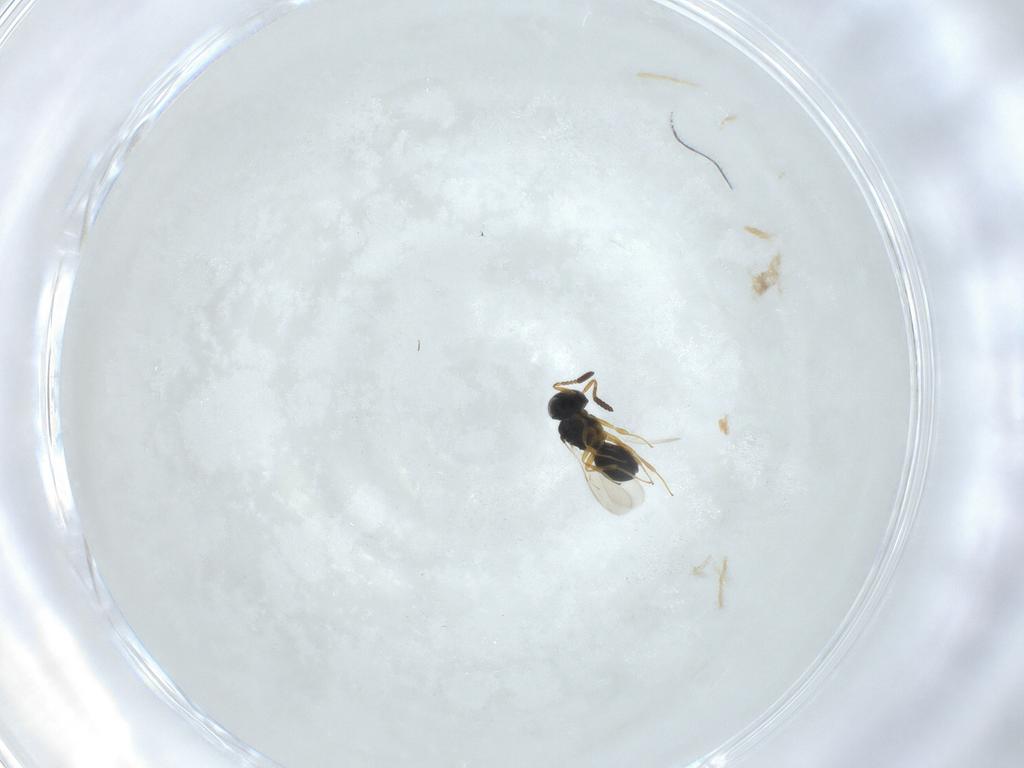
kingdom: Animalia
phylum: Arthropoda
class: Insecta
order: Hymenoptera
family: Scelionidae
